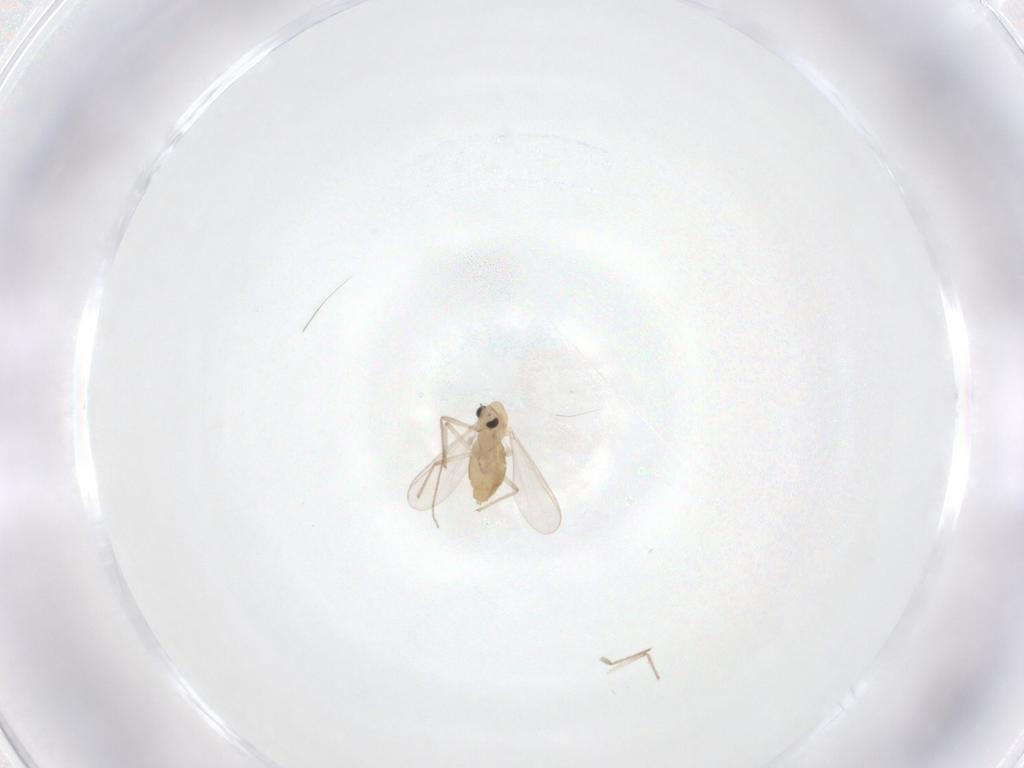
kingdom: Animalia
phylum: Arthropoda
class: Insecta
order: Diptera
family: Chironomidae
